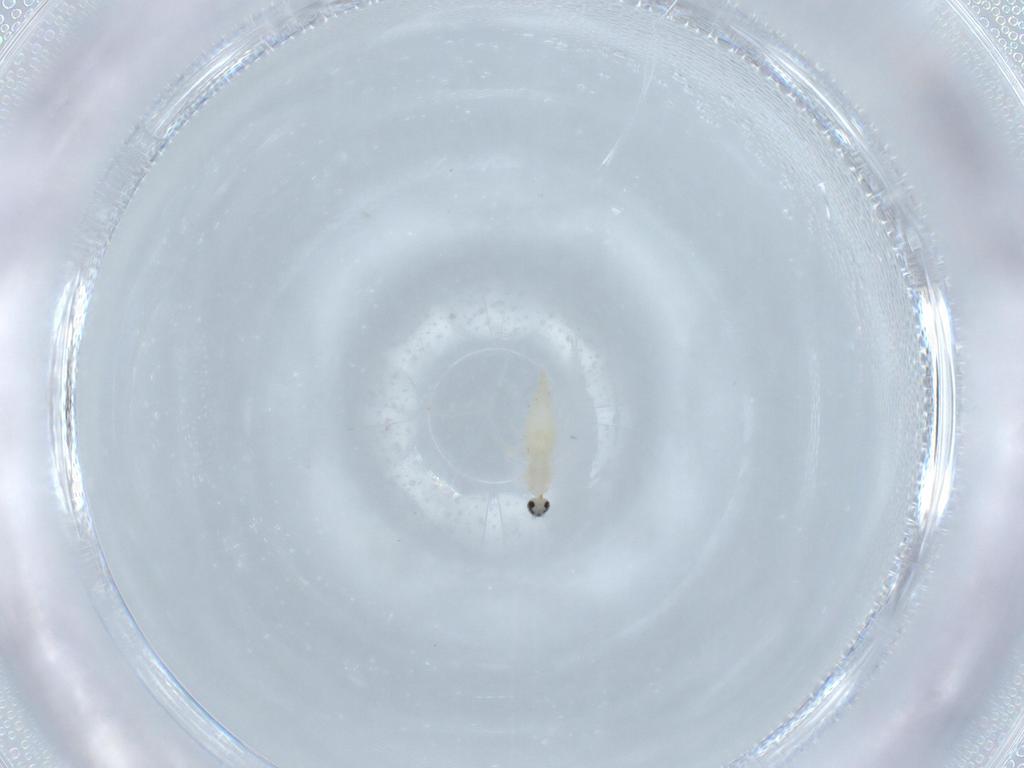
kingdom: Animalia
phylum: Arthropoda
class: Insecta
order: Diptera
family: Cecidomyiidae
